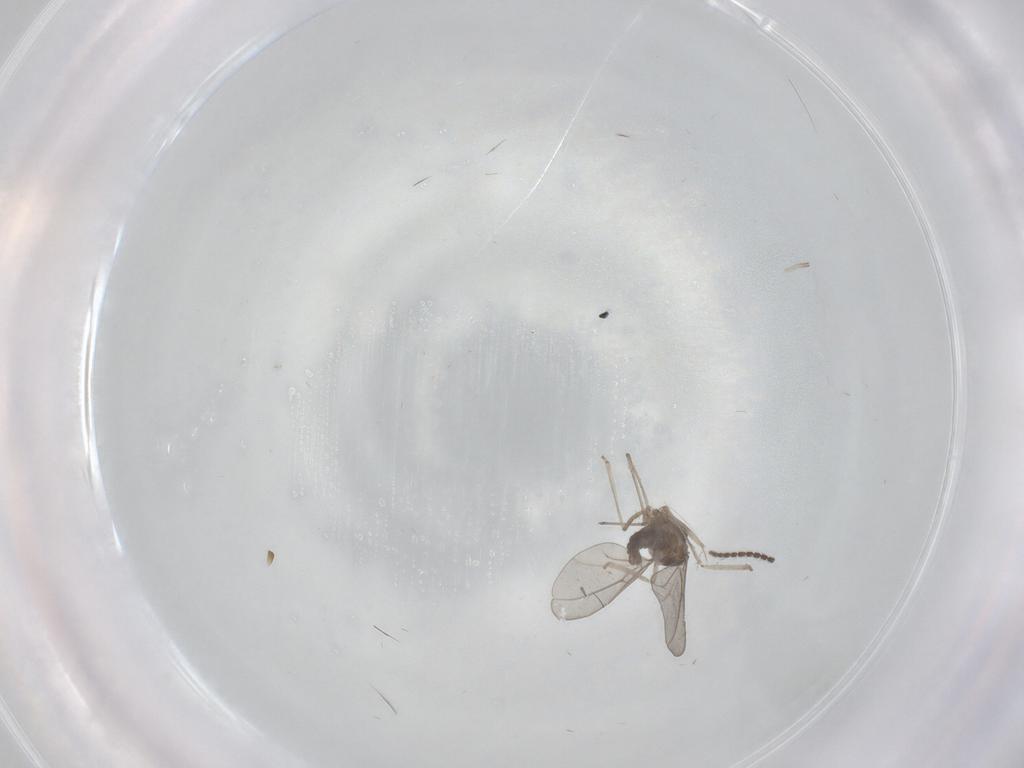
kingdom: Animalia
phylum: Arthropoda
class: Insecta
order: Diptera
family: Cecidomyiidae
